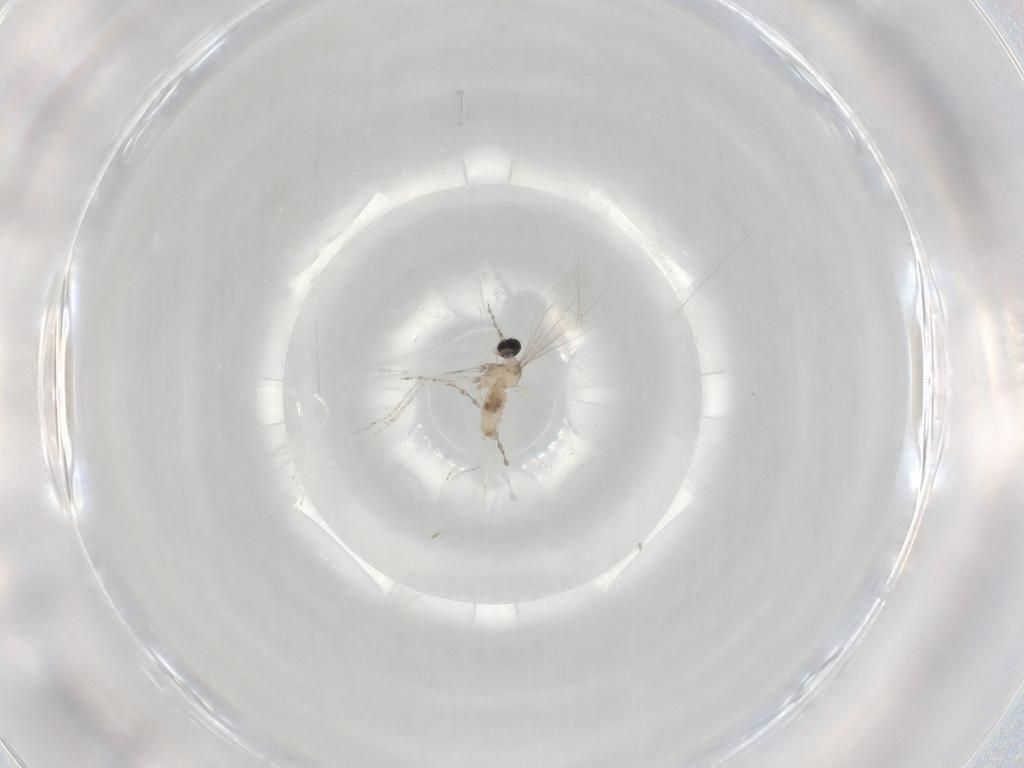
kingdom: Animalia
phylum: Arthropoda
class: Insecta
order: Diptera
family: Cecidomyiidae
